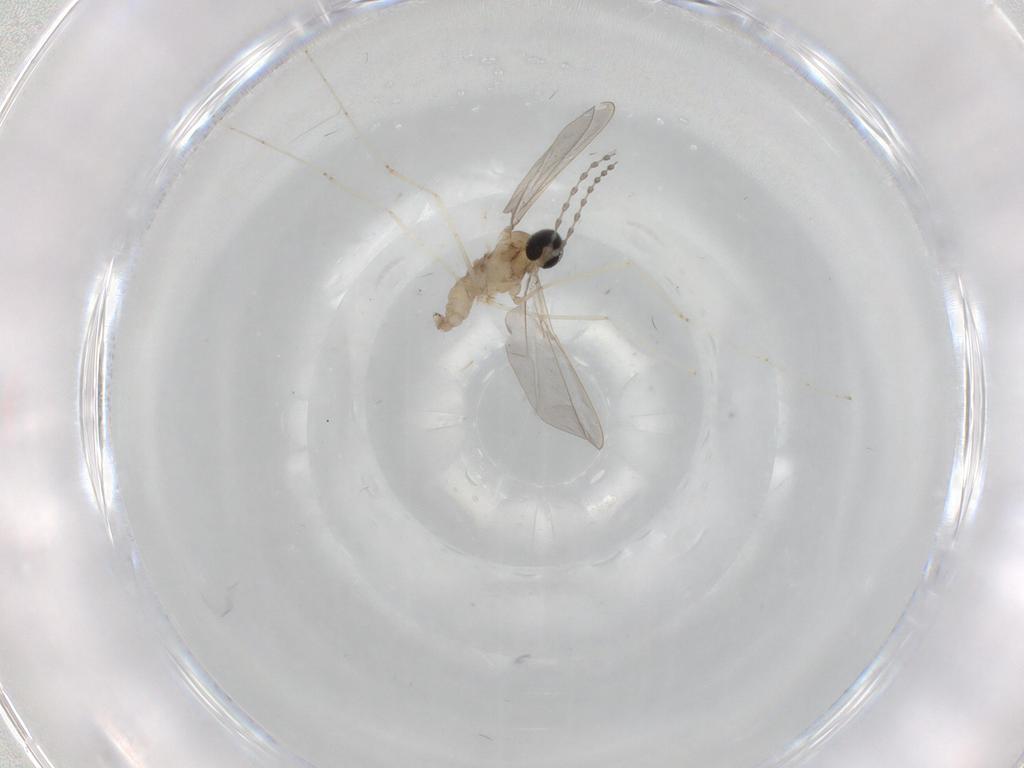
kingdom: Animalia
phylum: Arthropoda
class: Insecta
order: Diptera
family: Cecidomyiidae
